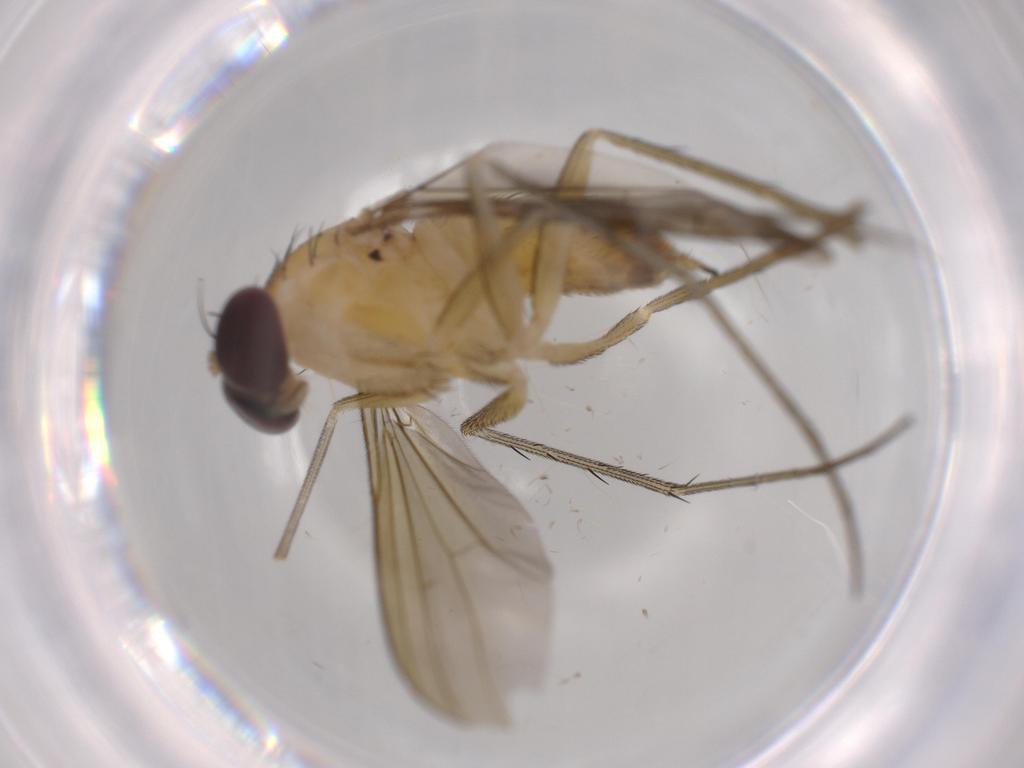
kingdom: Animalia
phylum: Arthropoda
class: Insecta
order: Diptera
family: Dolichopodidae
